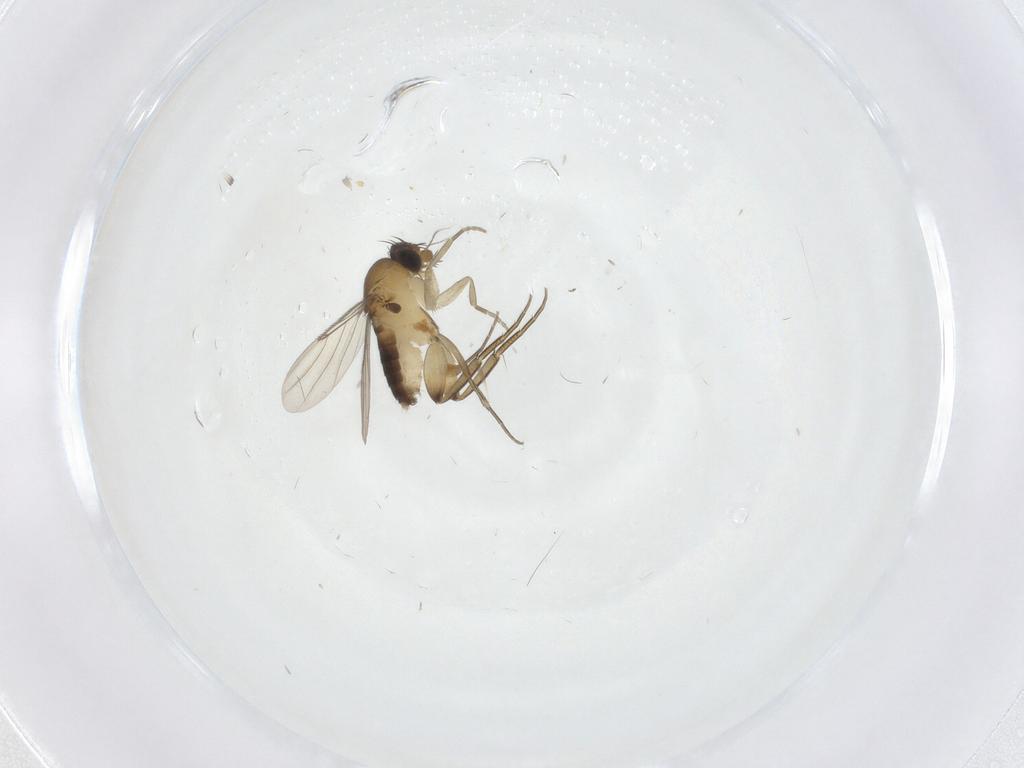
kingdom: Animalia
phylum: Arthropoda
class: Insecta
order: Diptera
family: Phoridae
